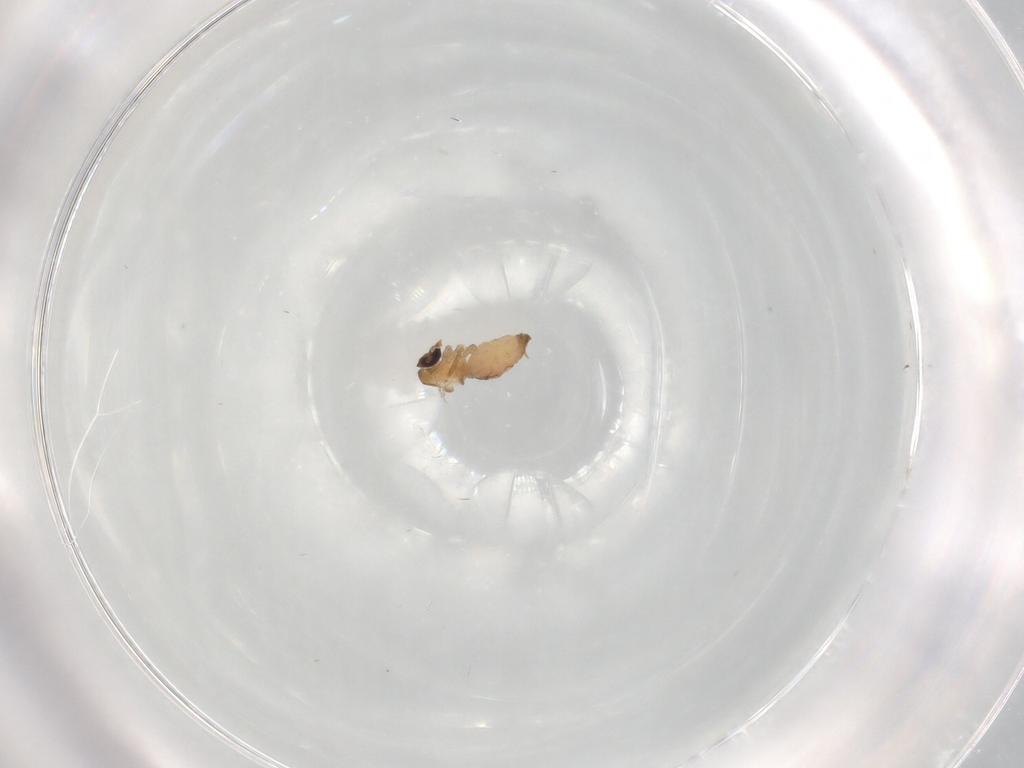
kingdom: Animalia
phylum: Arthropoda
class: Insecta
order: Diptera
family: Psychodidae
